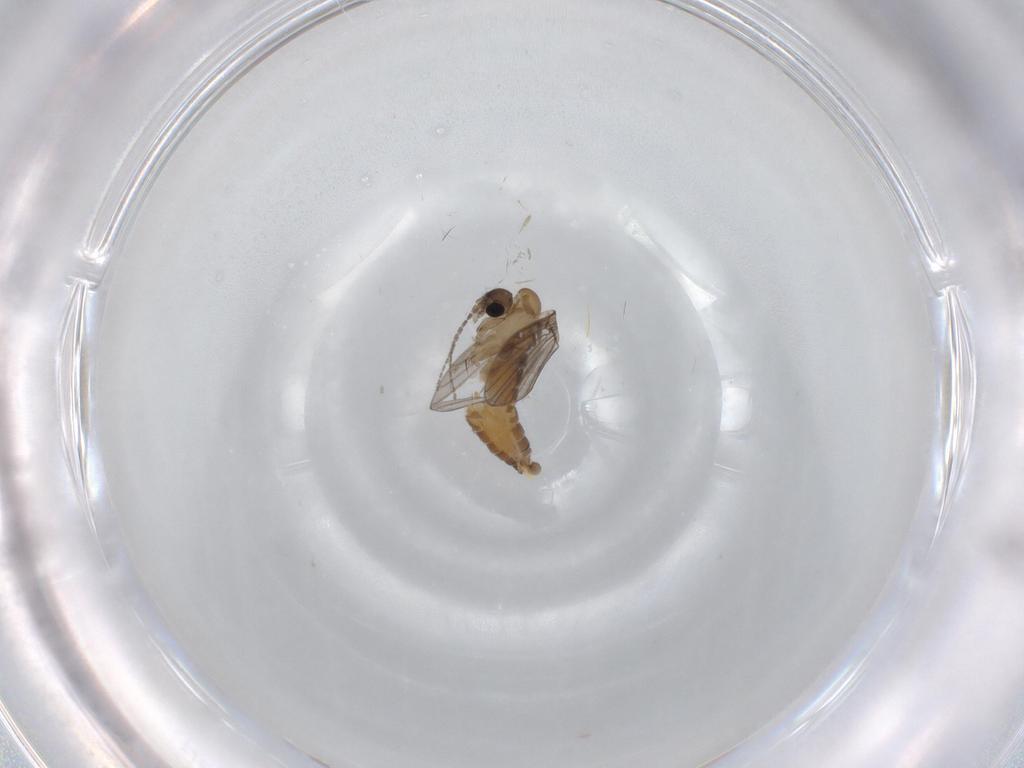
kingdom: Animalia
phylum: Arthropoda
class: Insecta
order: Diptera
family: Cecidomyiidae
